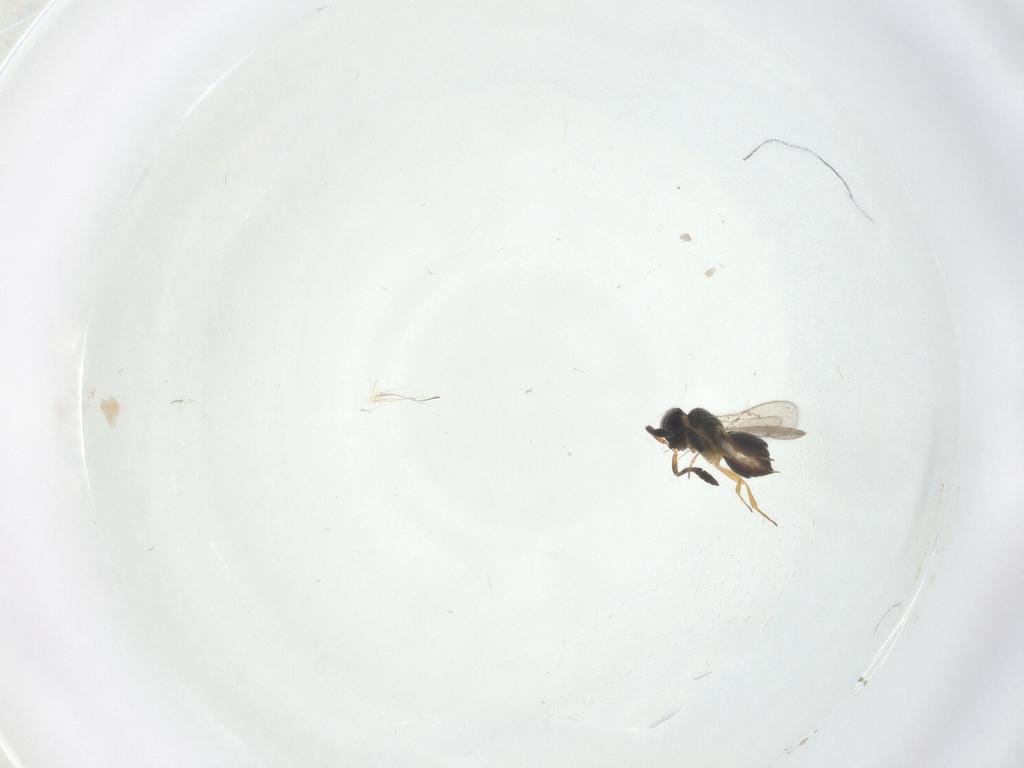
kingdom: Animalia
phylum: Arthropoda
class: Insecta
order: Hymenoptera
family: Scelionidae
